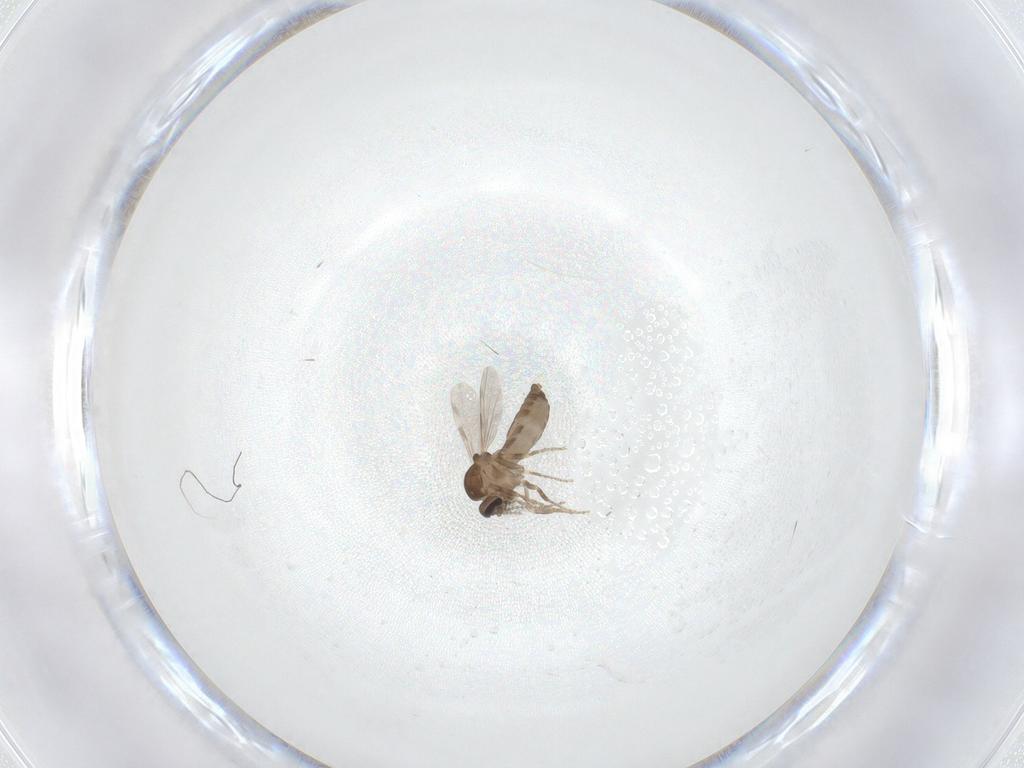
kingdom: Animalia
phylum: Arthropoda
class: Insecta
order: Diptera
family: Ceratopogonidae
